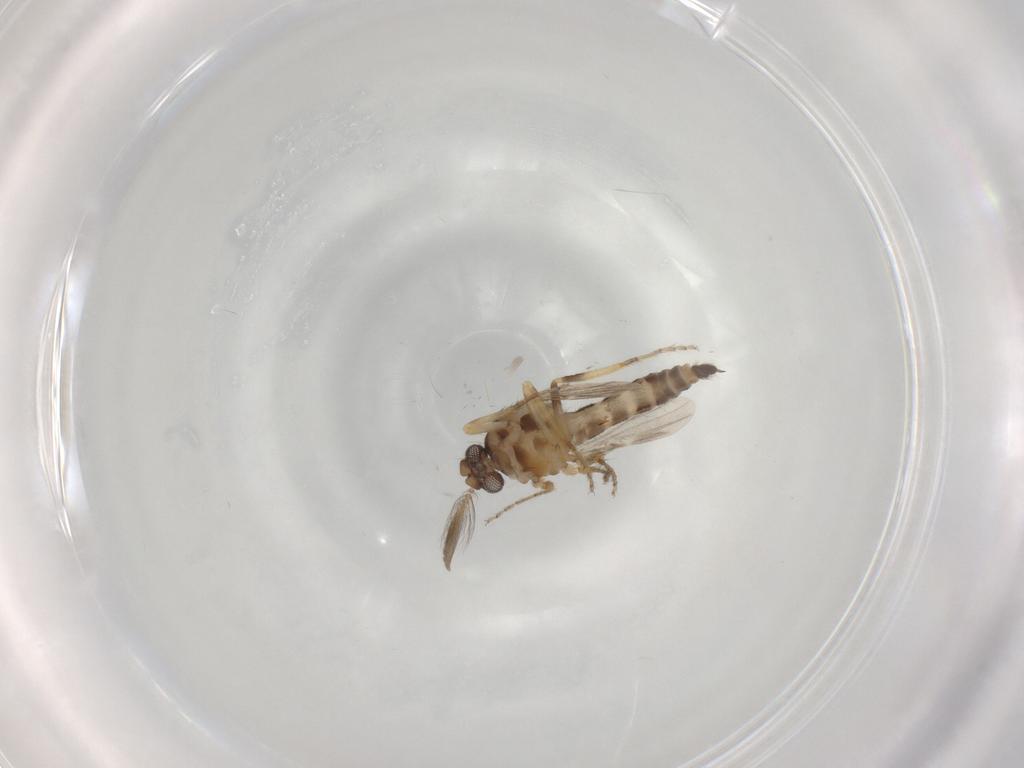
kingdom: Animalia
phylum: Arthropoda
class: Insecta
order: Diptera
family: Ceratopogonidae
